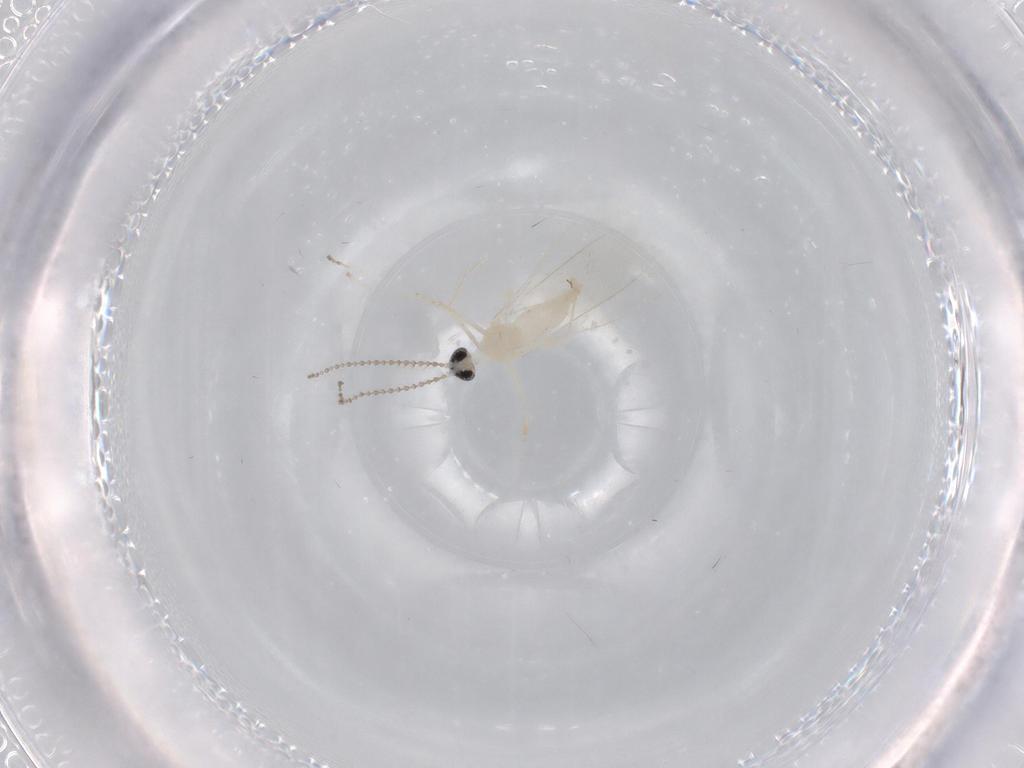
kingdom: Animalia
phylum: Arthropoda
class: Insecta
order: Diptera
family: Cecidomyiidae
